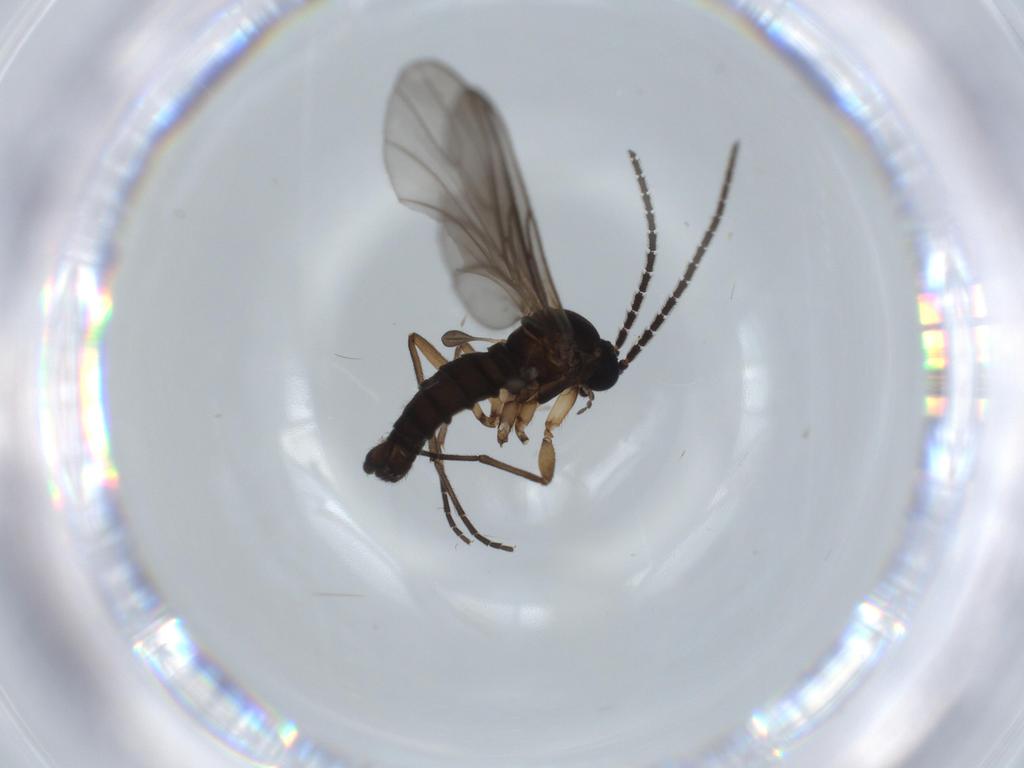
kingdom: Animalia
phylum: Arthropoda
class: Insecta
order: Diptera
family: Sciaridae
